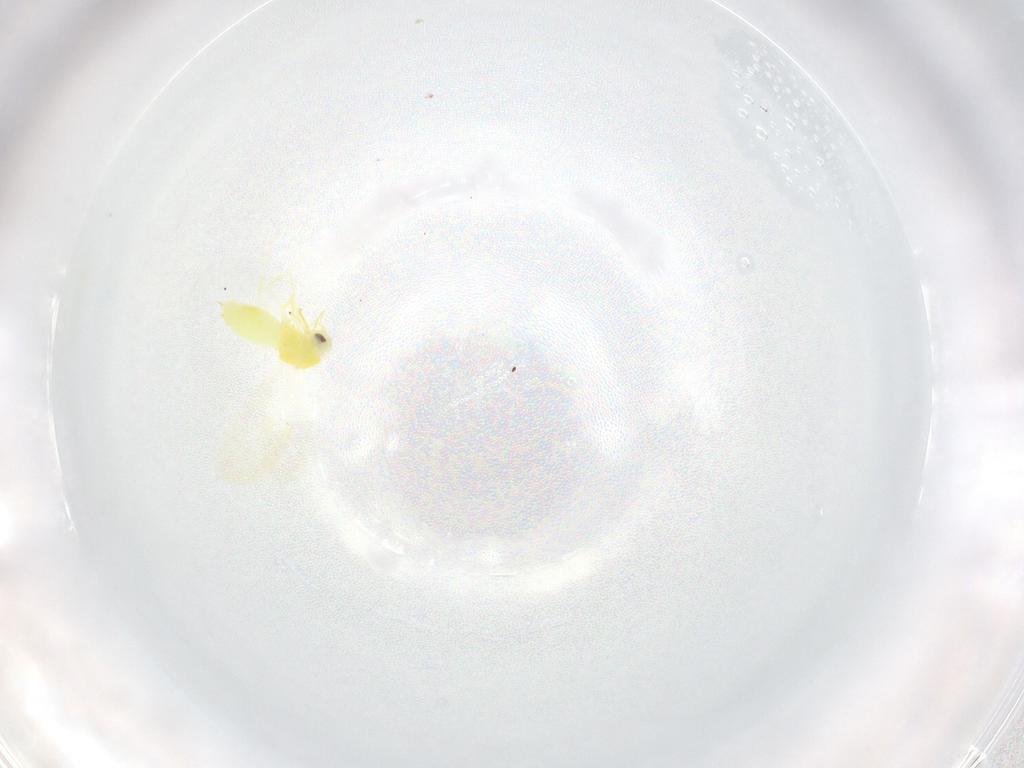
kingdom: Animalia
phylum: Arthropoda
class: Insecta
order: Hemiptera
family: Aleyrodidae
